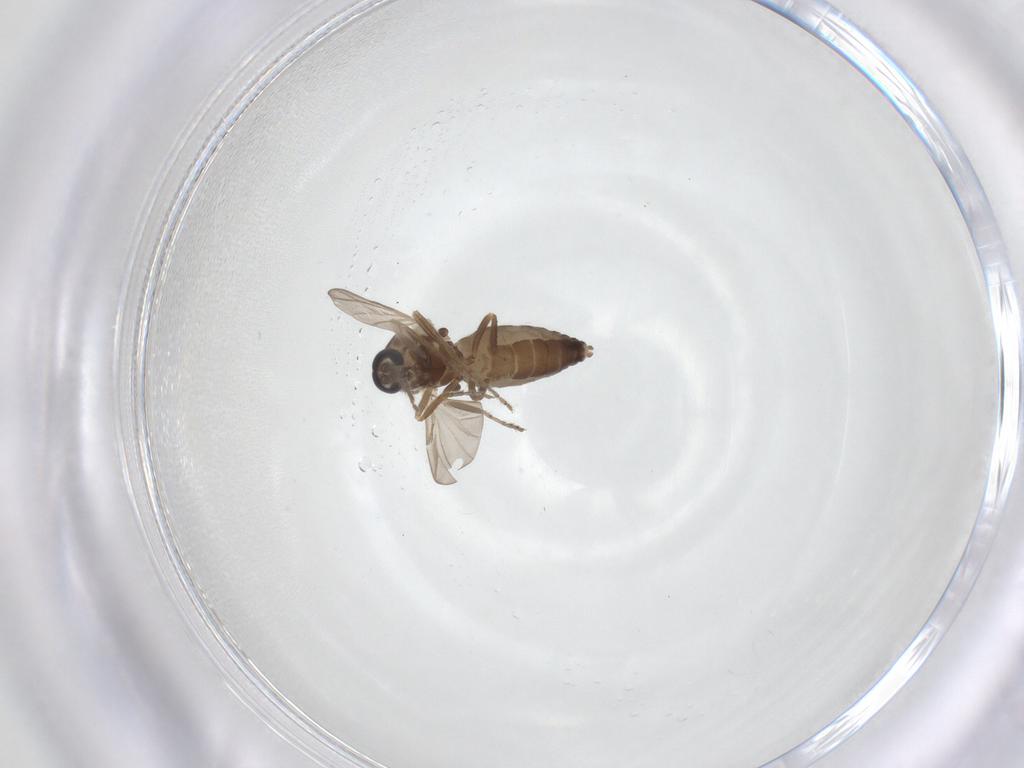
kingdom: Animalia
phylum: Arthropoda
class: Insecta
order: Diptera
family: Ceratopogonidae
